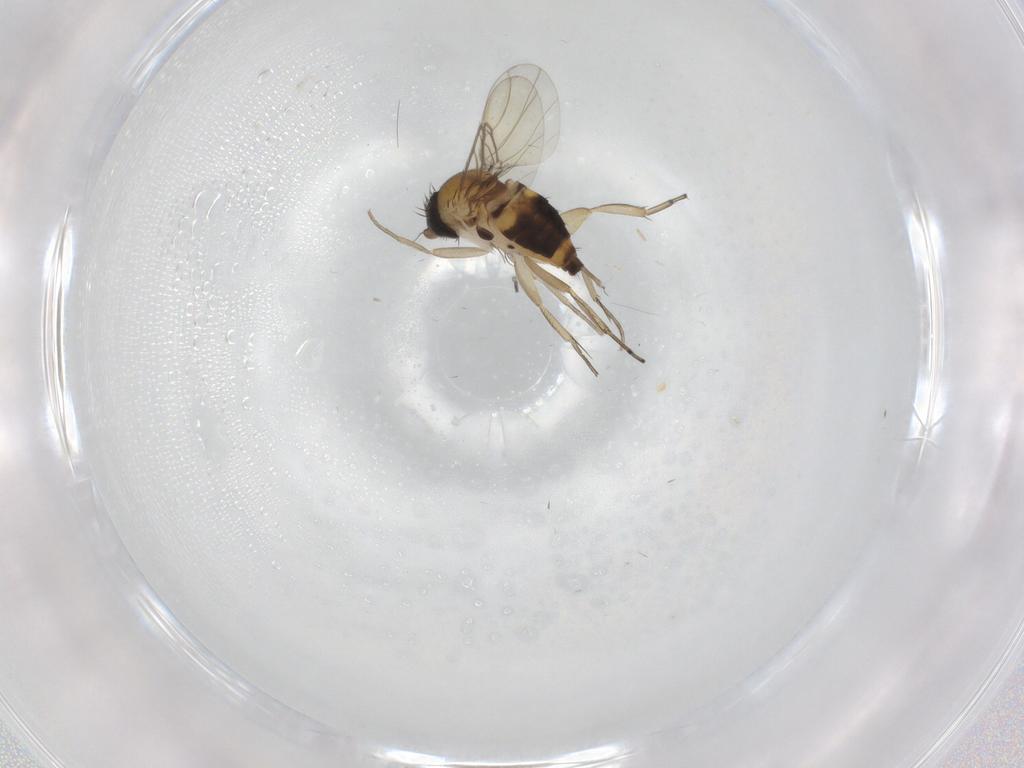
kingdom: Animalia
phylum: Arthropoda
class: Insecta
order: Diptera
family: Phoridae
